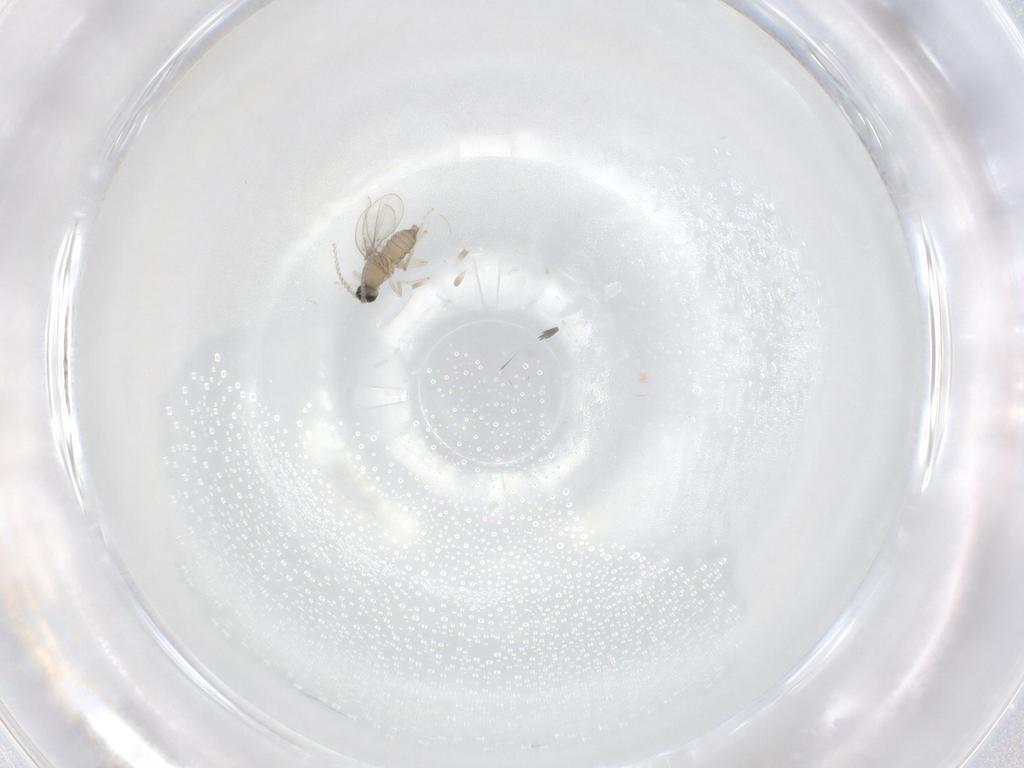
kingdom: Animalia
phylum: Arthropoda
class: Insecta
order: Diptera
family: Cecidomyiidae
